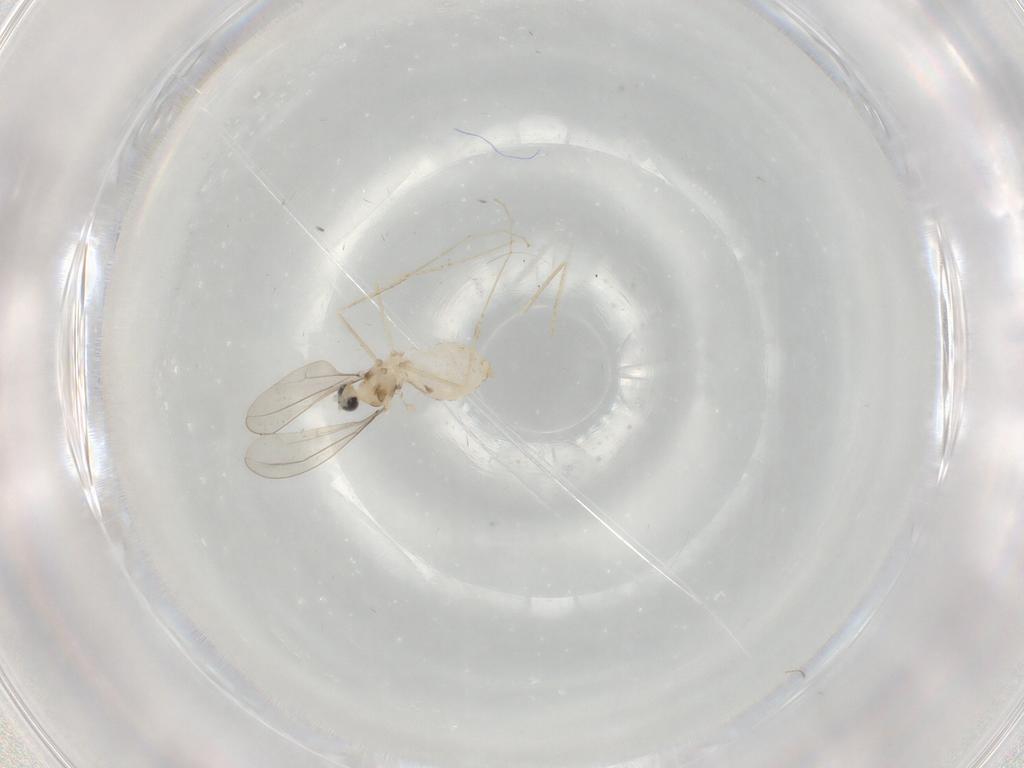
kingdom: Animalia
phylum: Arthropoda
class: Insecta
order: Diptera
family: Cecidomyiidae
